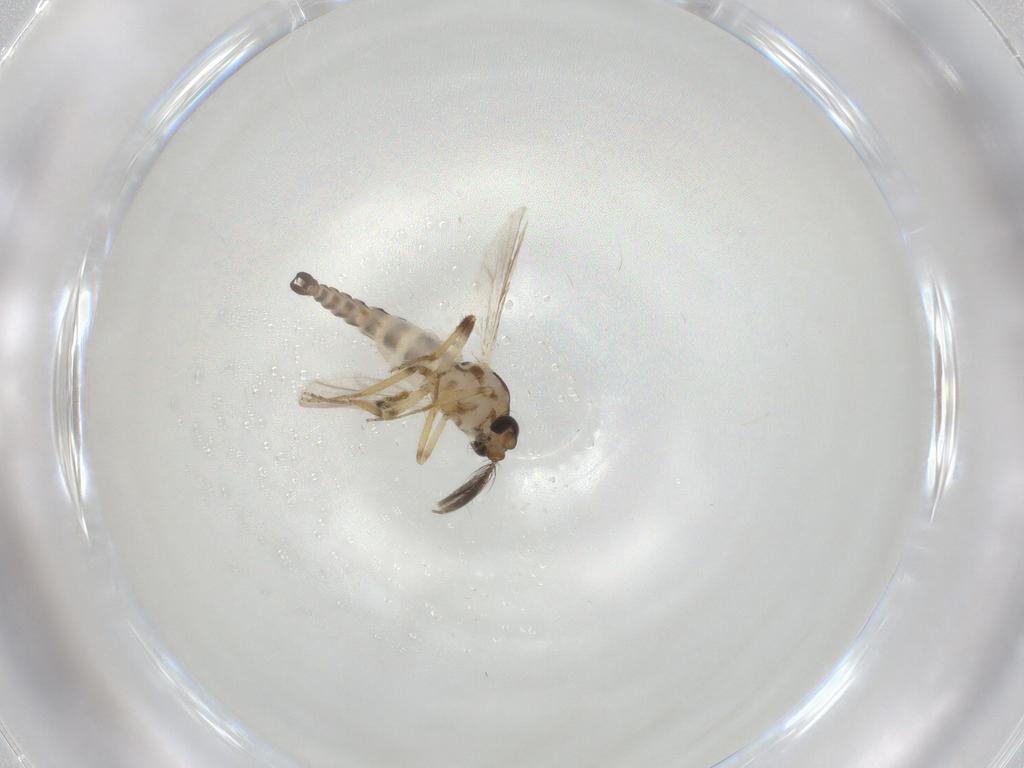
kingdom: Animalia
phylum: Arthropoda
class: Insecta
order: Diptera
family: Ceratopogonidae
